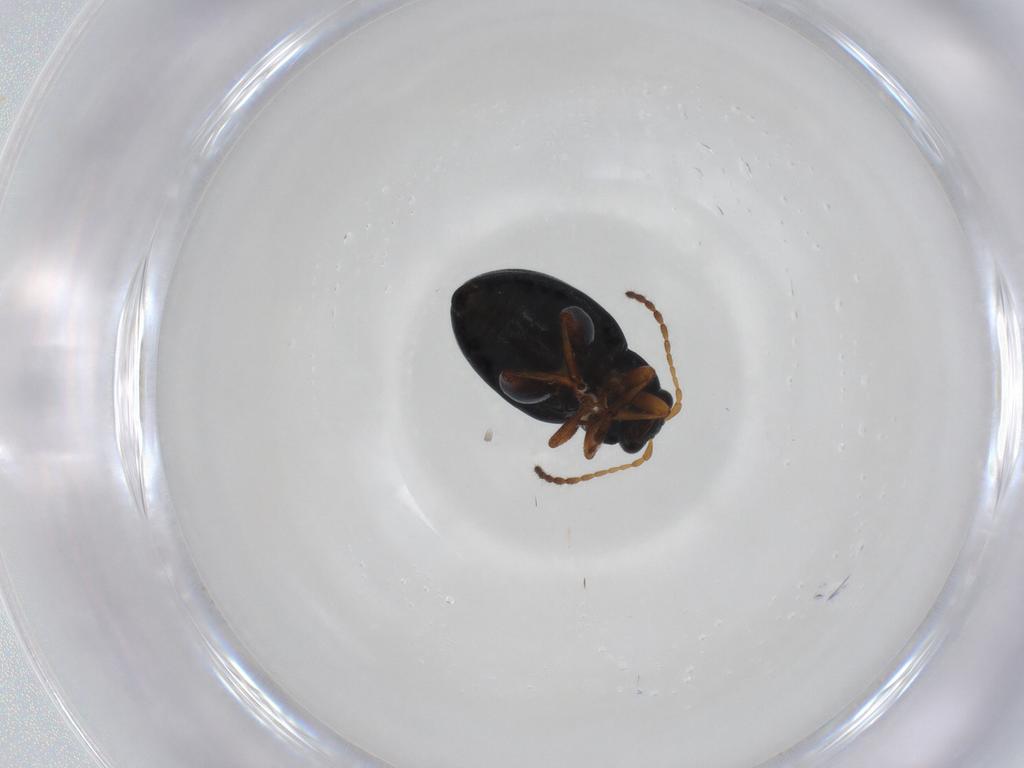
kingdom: Animalia
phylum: Arthropoda
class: Insecta
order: Coleoptera
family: Chrysomelidae
